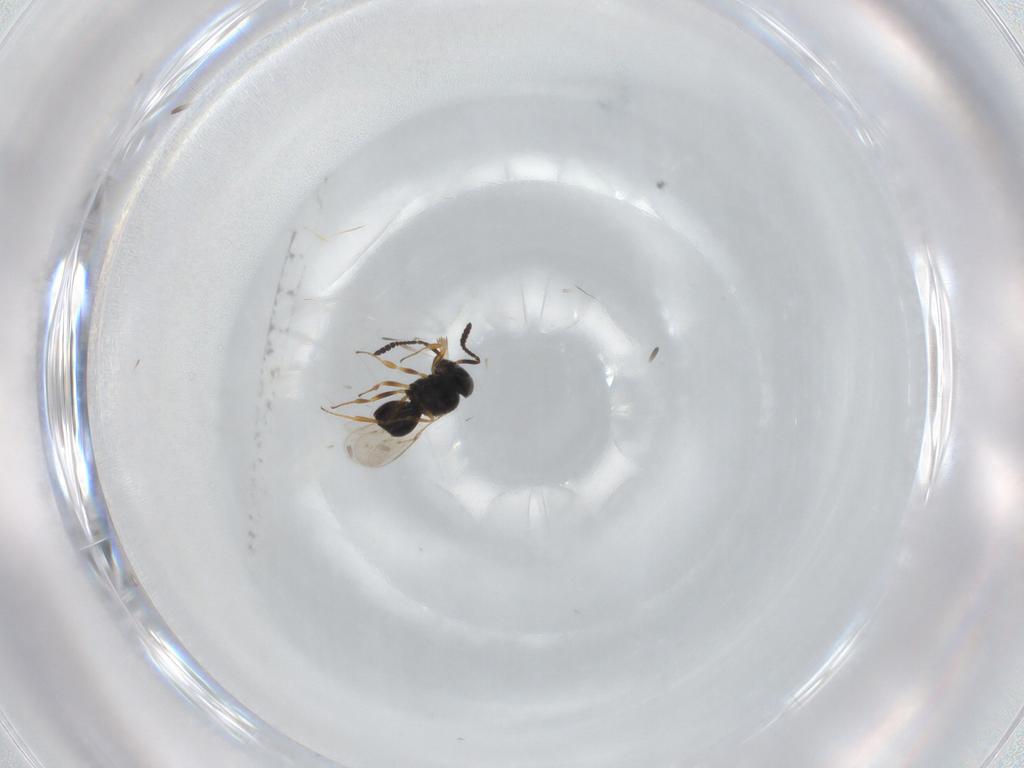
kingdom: Animalia
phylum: Arthropoda
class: Insecta
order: Hymenoptera
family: Scelionidae
